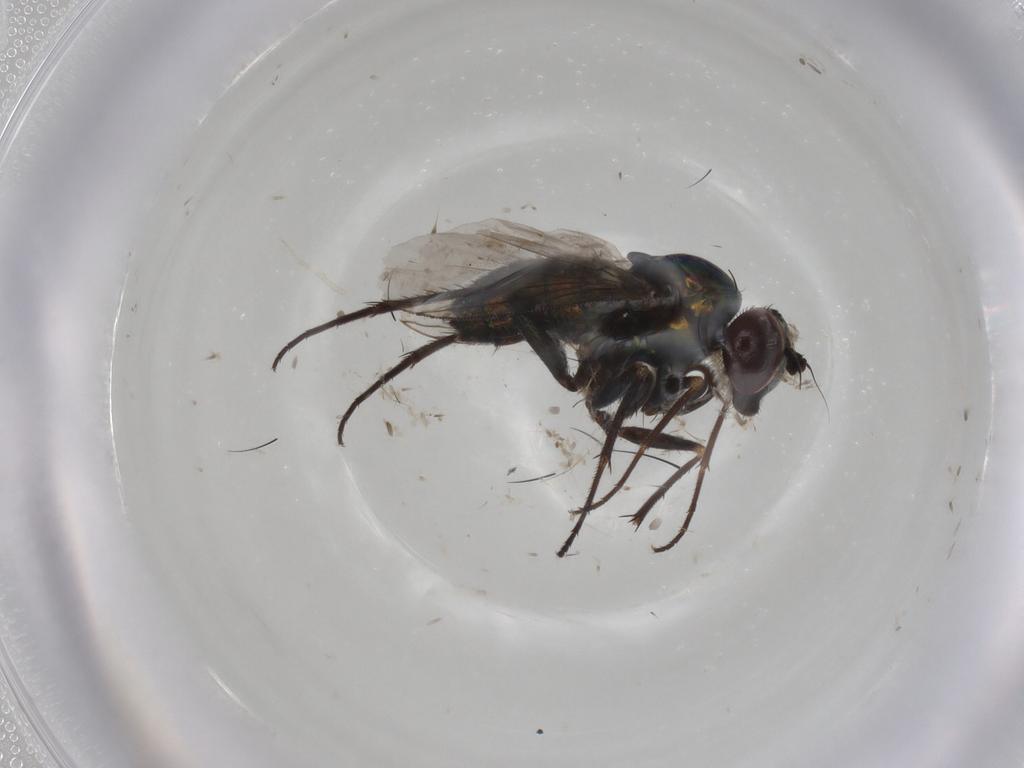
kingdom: Animalia
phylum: Arthropoda
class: Insecta
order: Diptera
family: Dolichopodidae
